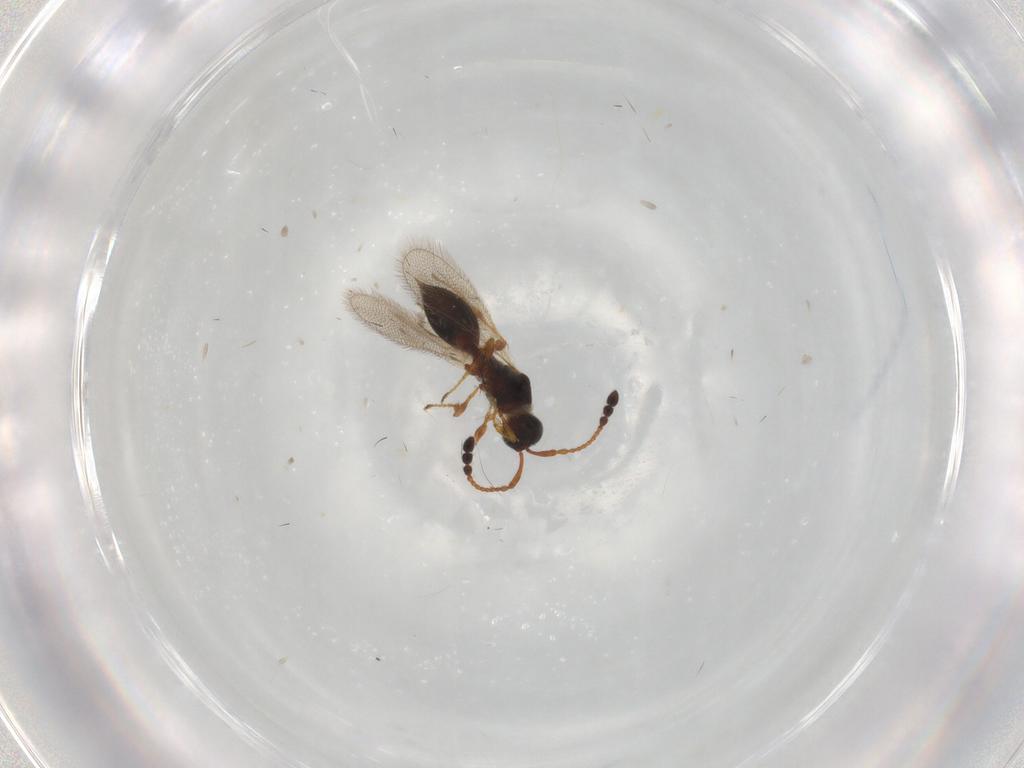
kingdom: Animalia
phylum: Arthropoda
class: Insecta
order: Hymenoptera
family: Diapriidae
